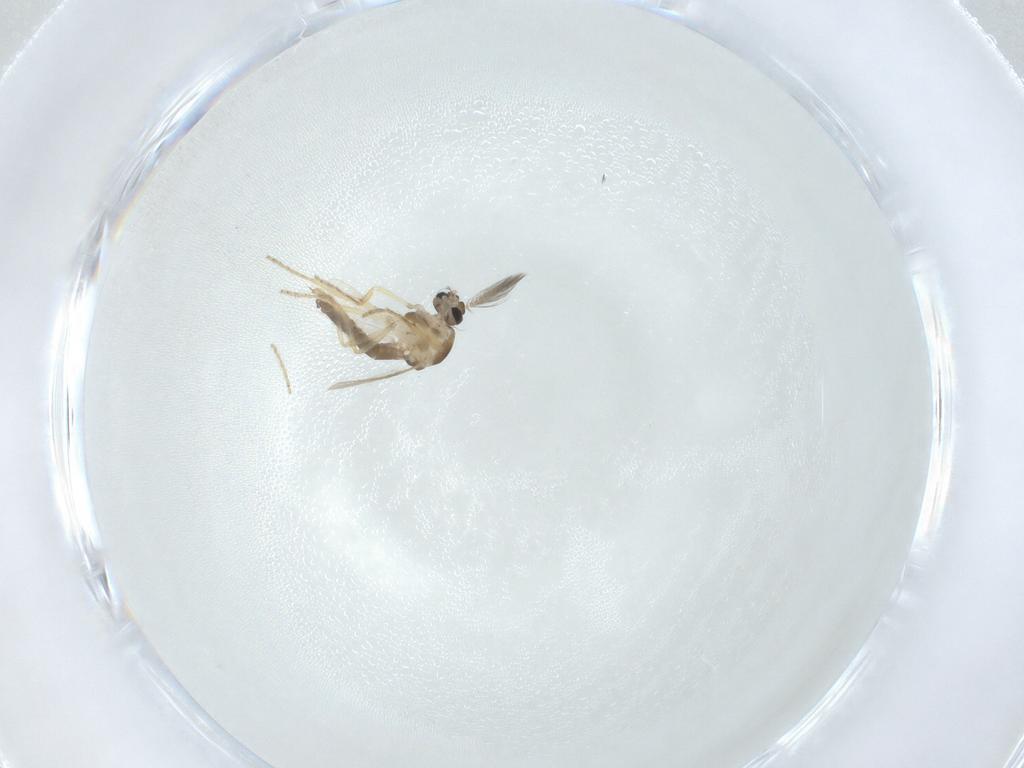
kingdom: Animalia
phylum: Arthropoda
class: Insecta
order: Diptera
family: Ceratopogonidae
